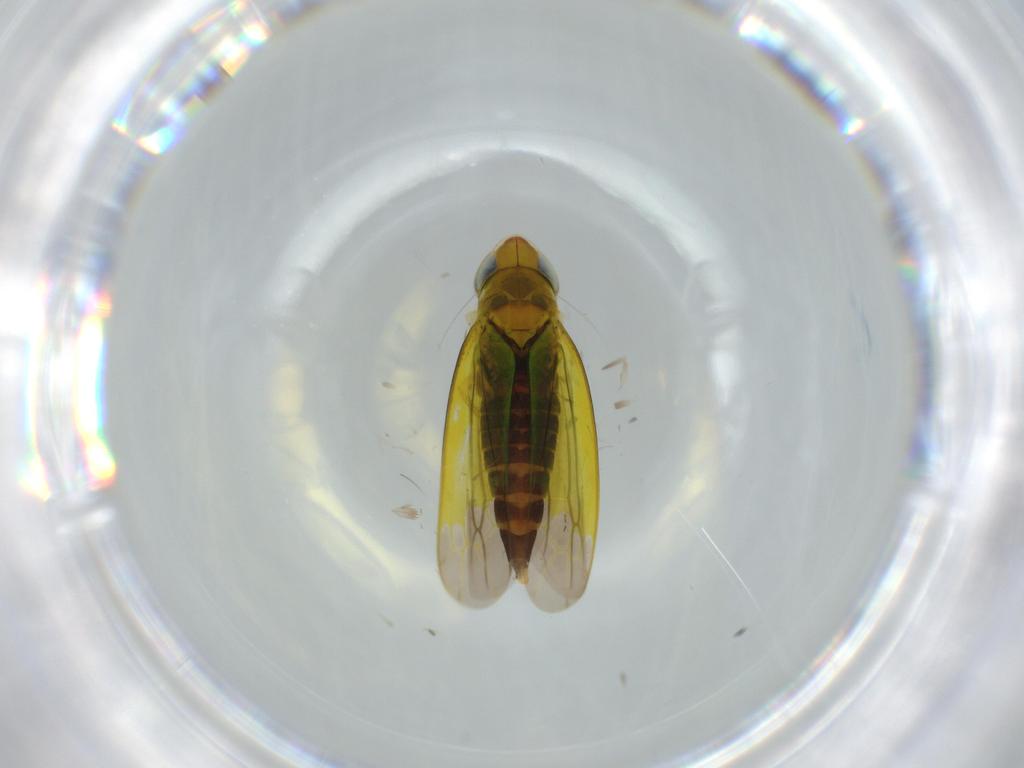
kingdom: Animalia
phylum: Arthropoda
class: Insecta
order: Hemiptera
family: Cicadellidae
